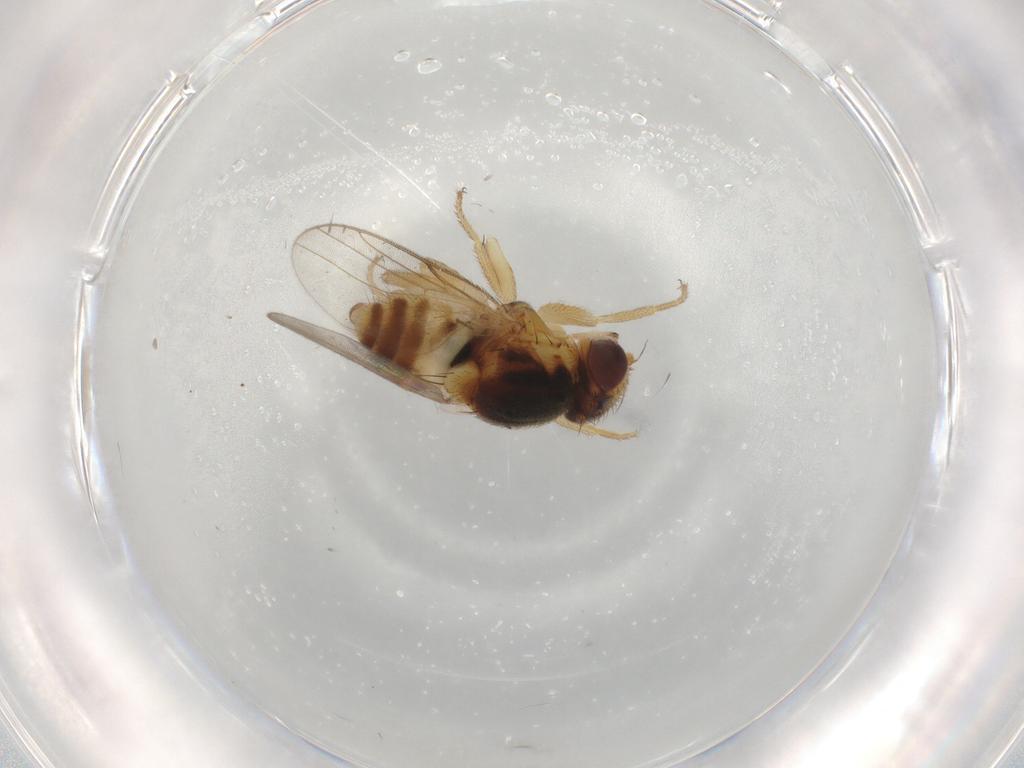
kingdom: Animalia
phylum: Arthropoda
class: Insecta
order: Diptera
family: Chloropidae
